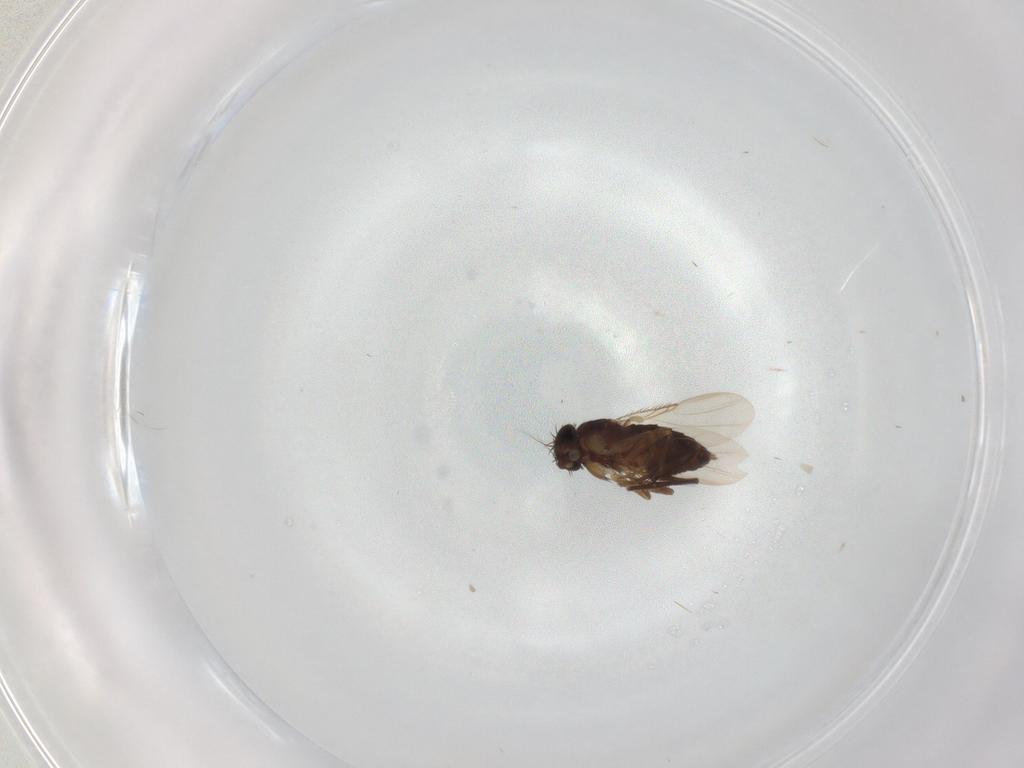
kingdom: Animalia
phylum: Arthropoda
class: Insecta
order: Diptera
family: Phoridae
